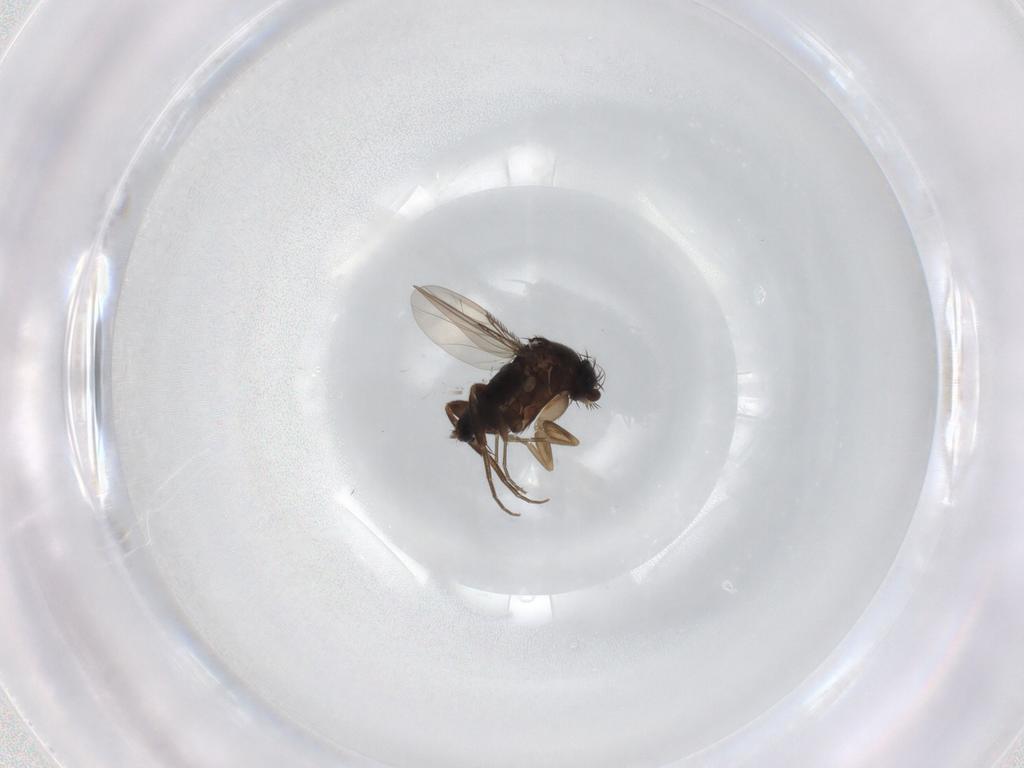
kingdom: Animalia
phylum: Arthropoda
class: Insecta
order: Diptera
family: Phoridae
